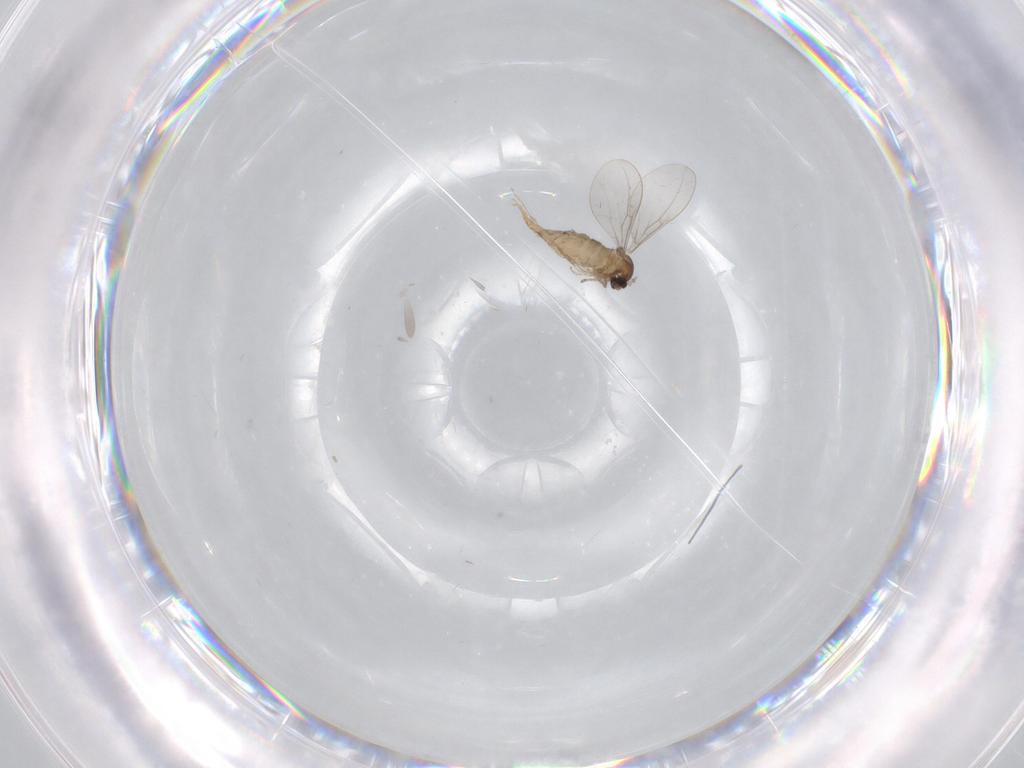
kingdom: Animalia
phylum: Arthropoda
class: Insecta
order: Diptera
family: Cecidomyiidae
